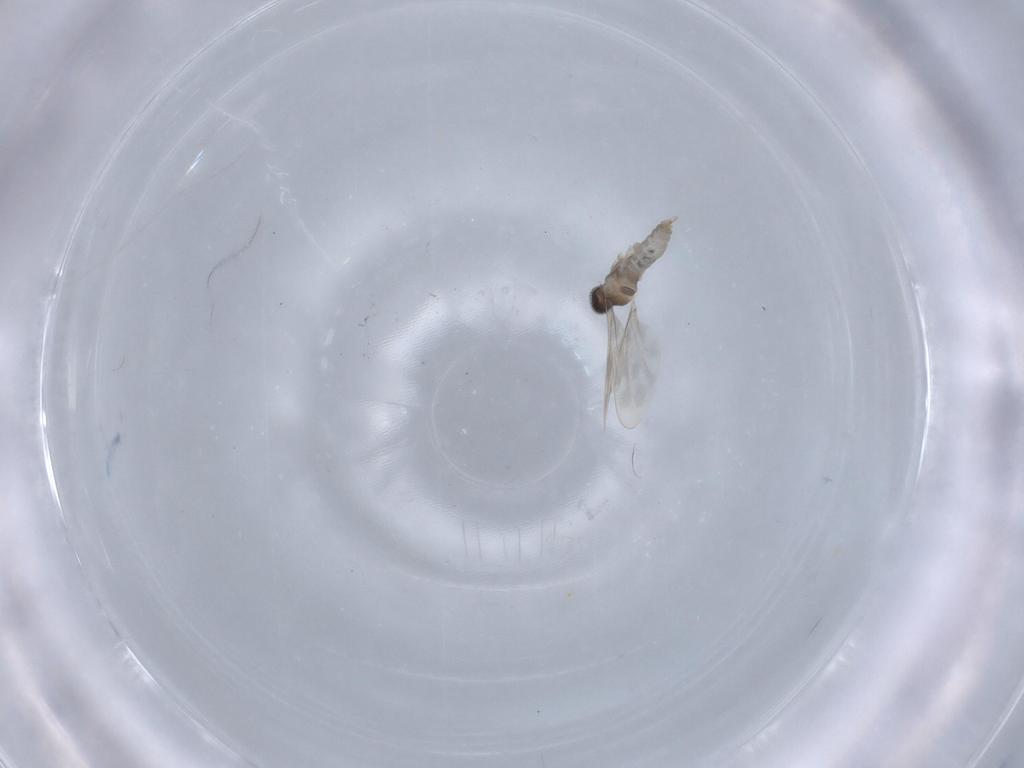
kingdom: Animalia
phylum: Arthropoda
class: Insecta
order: Diptera
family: Cecidomyiidae
